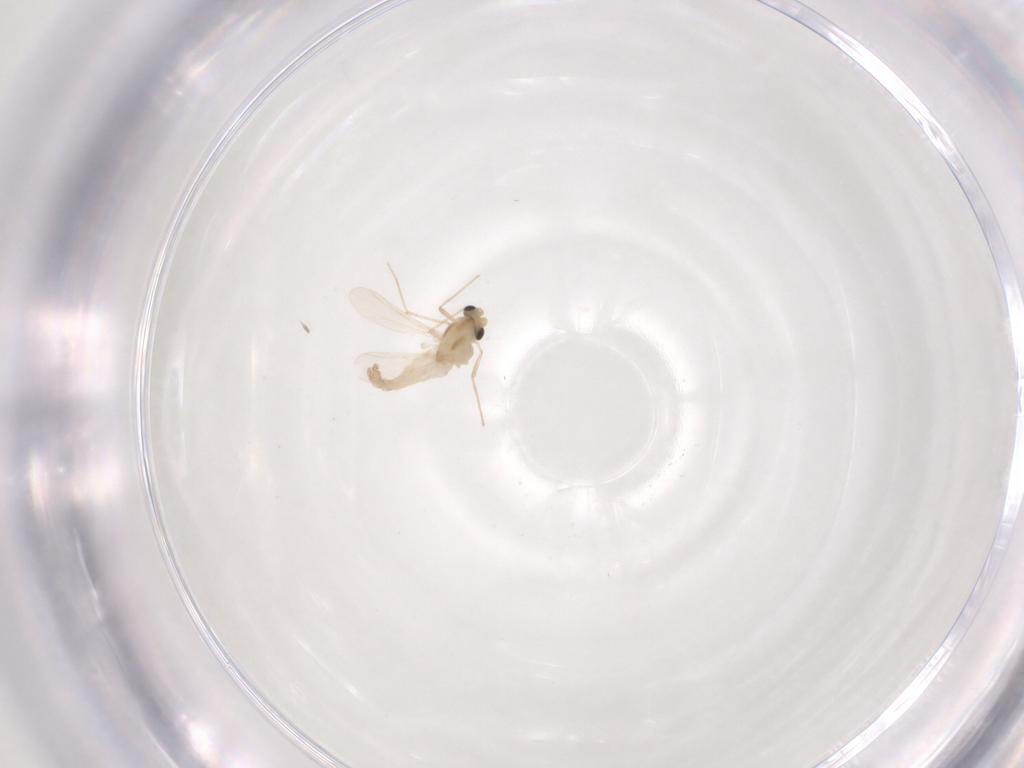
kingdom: Animalia
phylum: Arthropoda
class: Insecta
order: Diptera
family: Chironomidae
